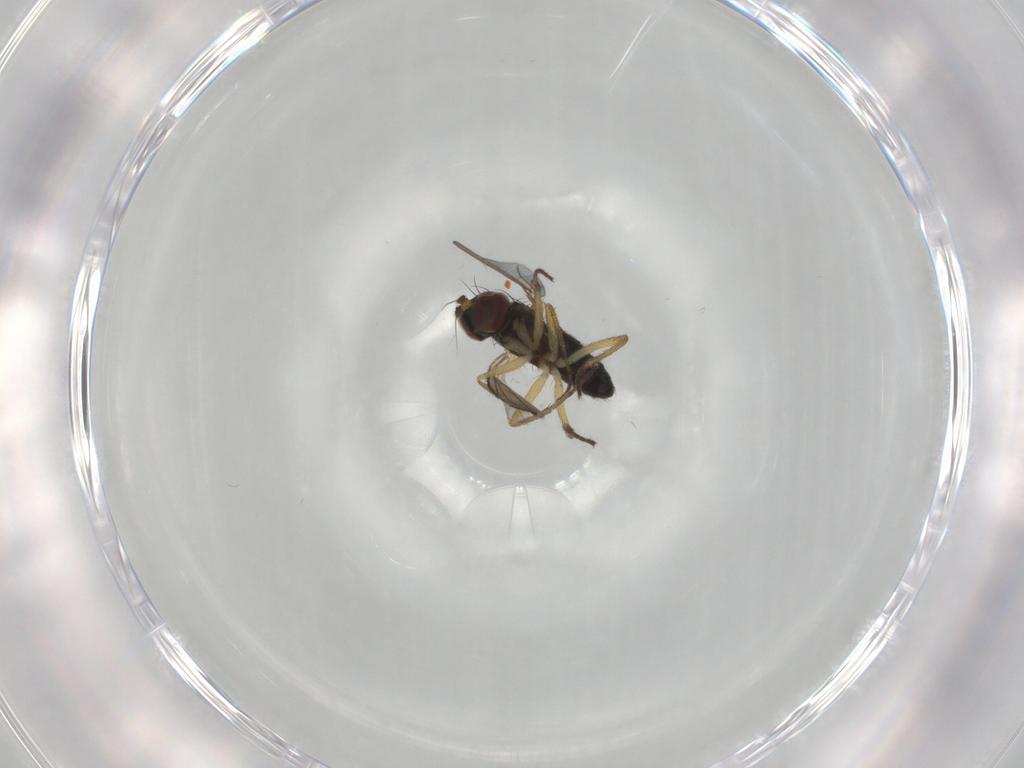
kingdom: Animalia
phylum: Arthropoda
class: Insecta
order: Diptera
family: Dolichopodidae
